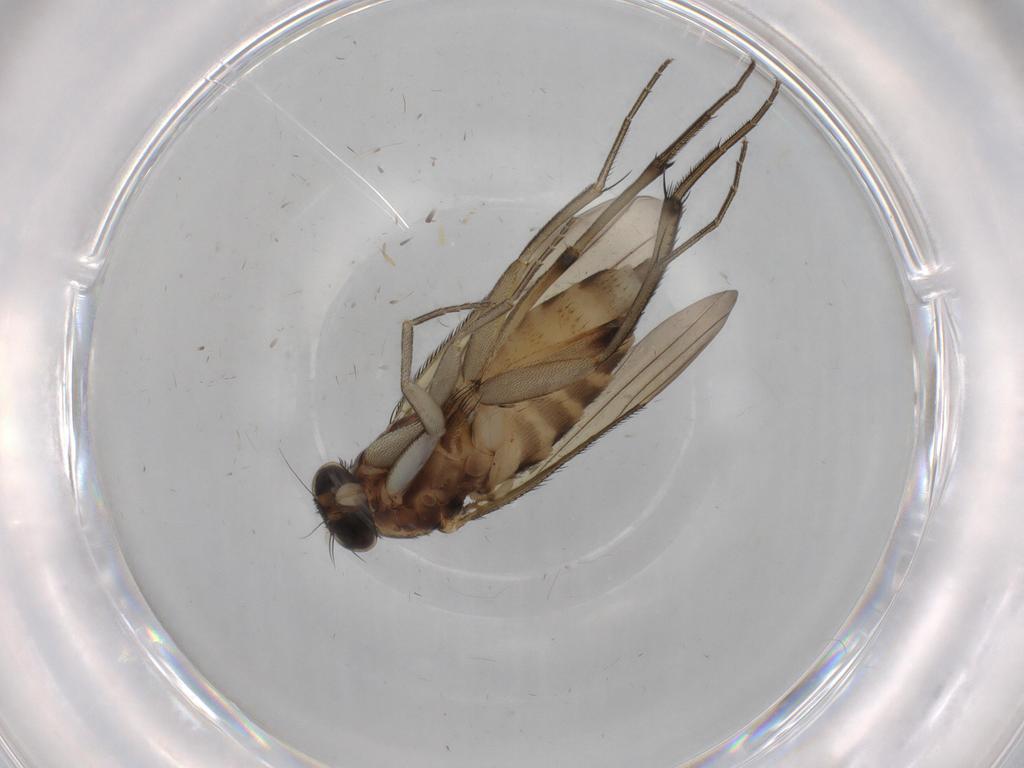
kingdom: Animalia
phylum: Arthropoda
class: Insecta
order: Diptera
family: Phoridae
